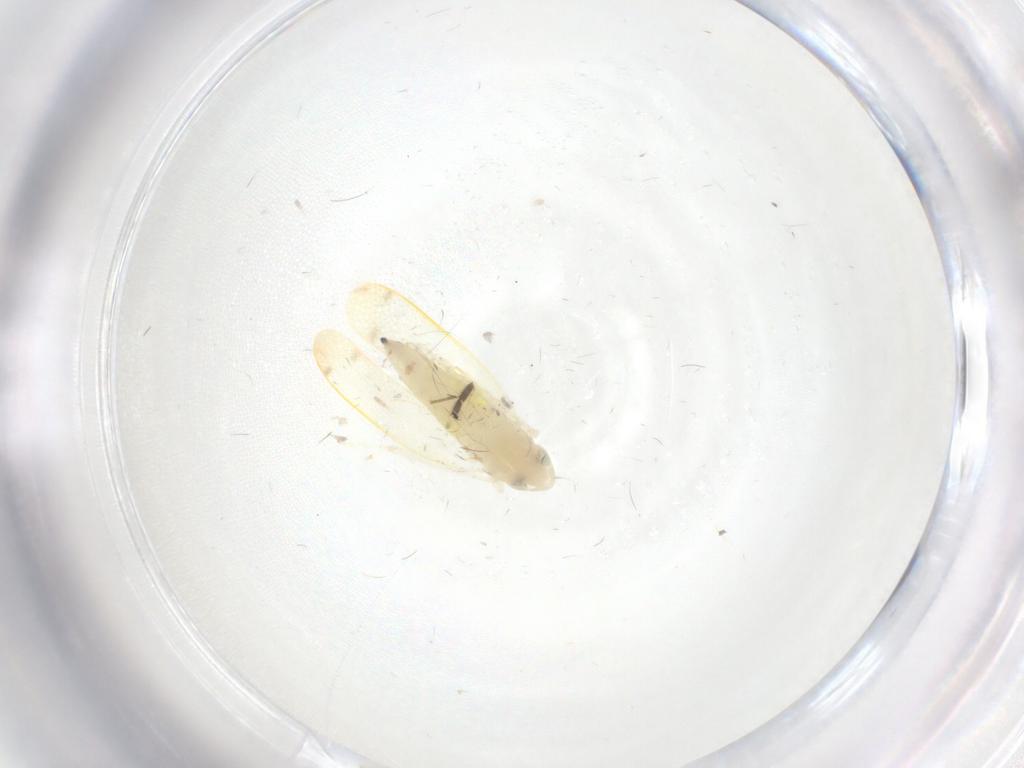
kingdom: Animalia
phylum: Arthropoda
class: Insecta
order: Hemiptera
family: Cicadellidae
